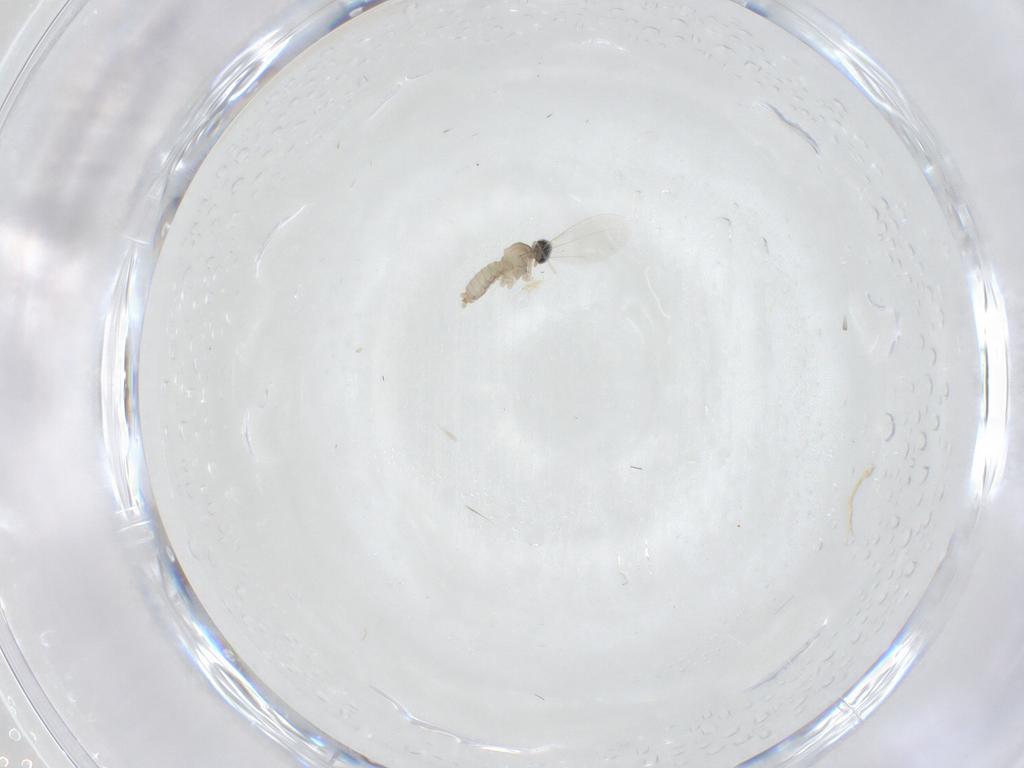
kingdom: Animalia
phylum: Arthropoda
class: Insecta
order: Diptera
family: Cecidomyiidae
